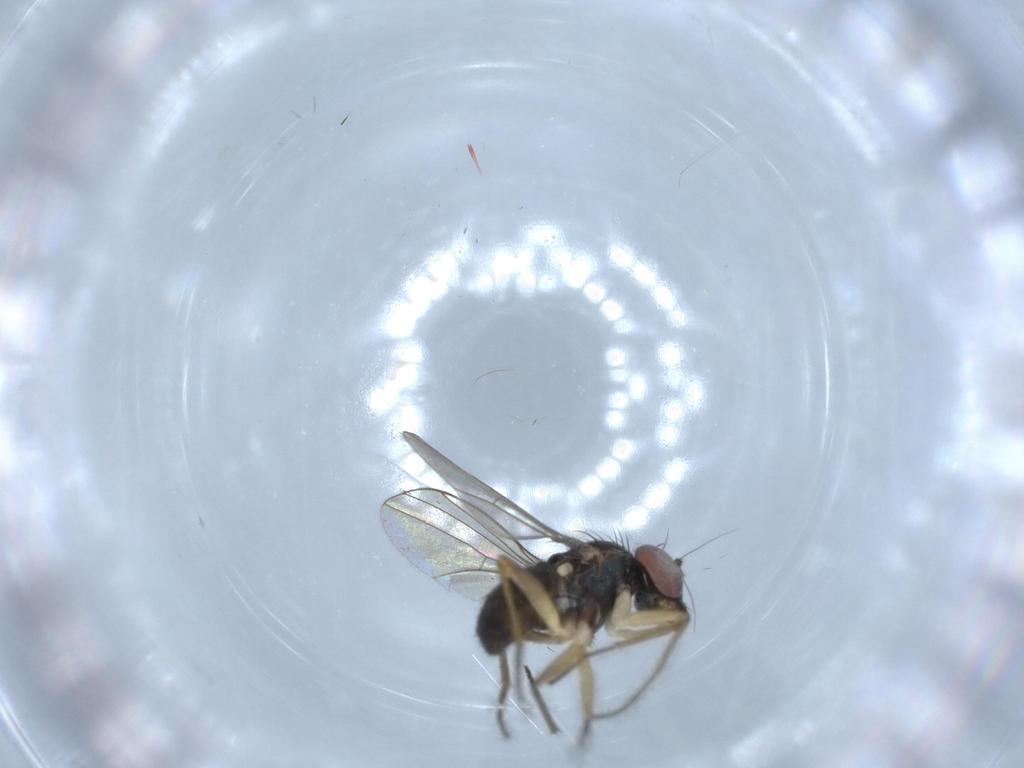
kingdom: Animalia
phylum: Arthropoda
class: Insecta
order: Diptera
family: Dolichopodidae
